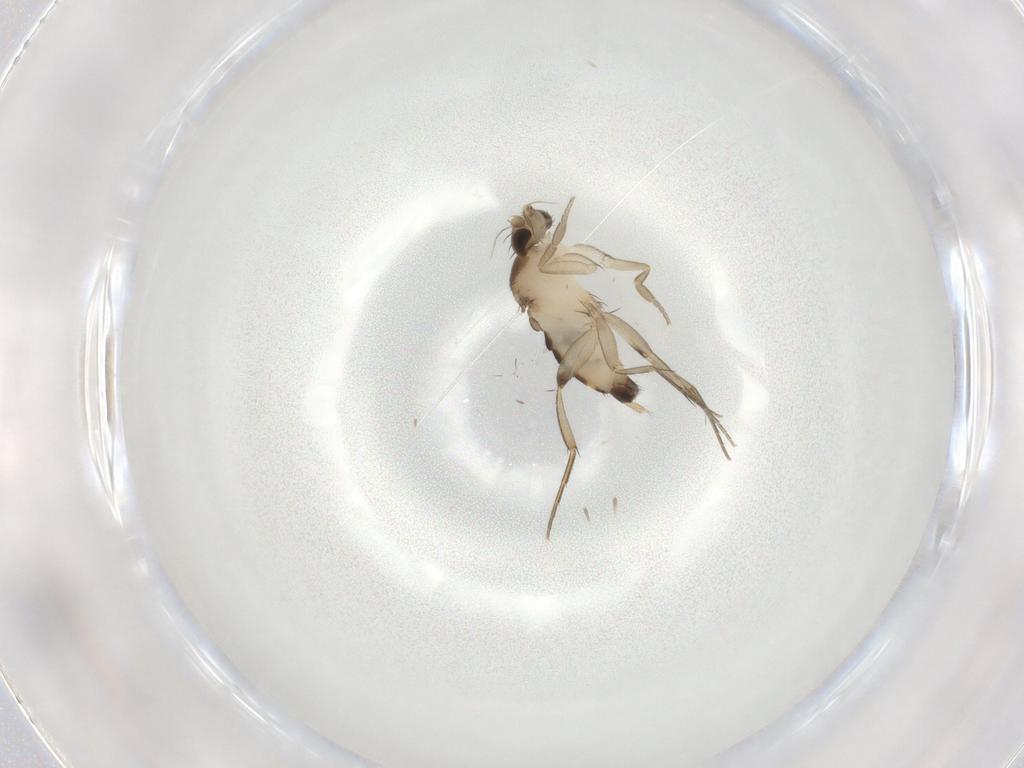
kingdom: Animalia
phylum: Arthropoda
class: Insecta
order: Diptera
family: Phoridae
